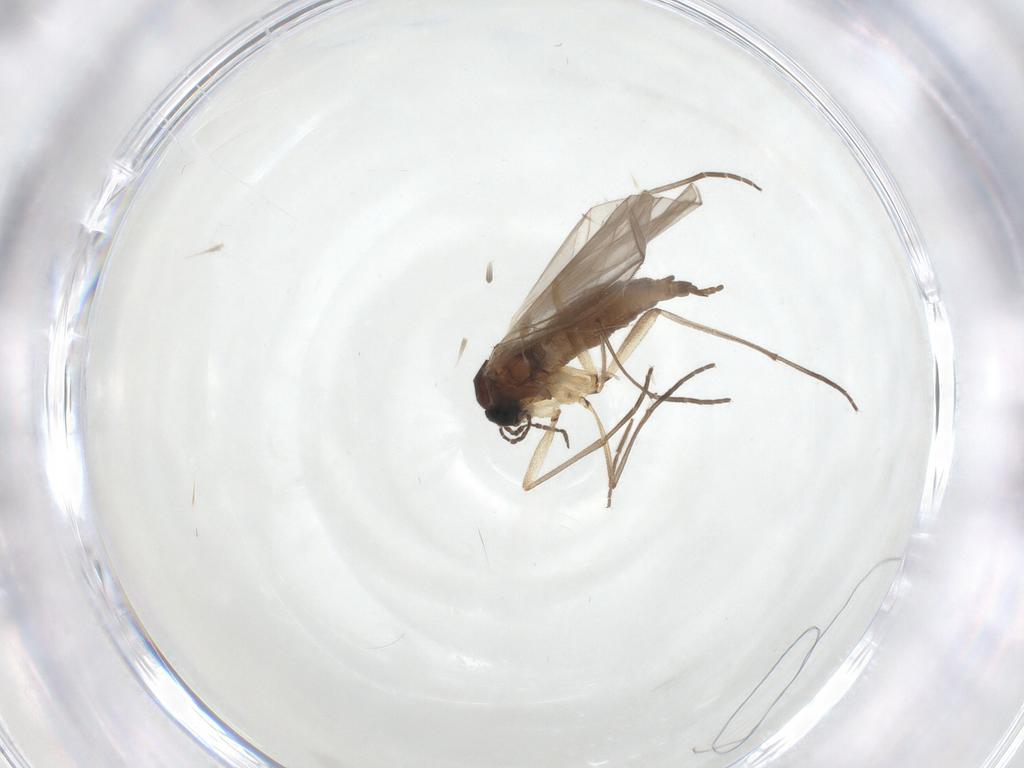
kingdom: Animalia
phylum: Arthropoda
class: Insecta
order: Diptera
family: Sciaridae
